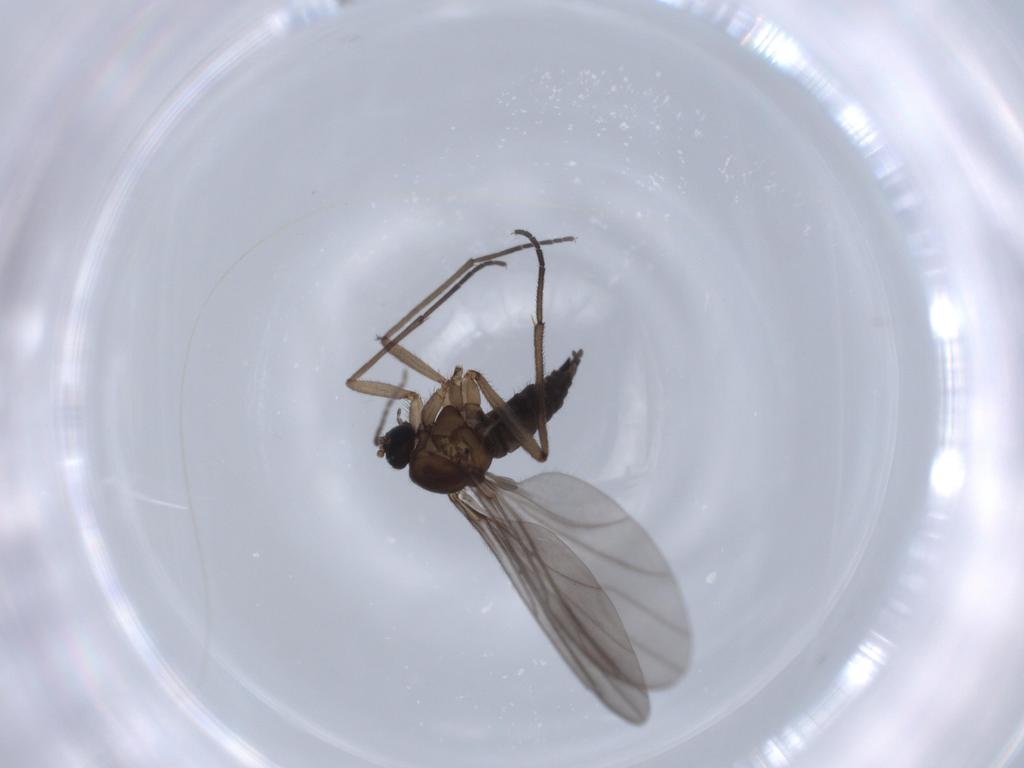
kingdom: Animalia
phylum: Arthropoda
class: Insecta
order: Diptera
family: Sciaridae
